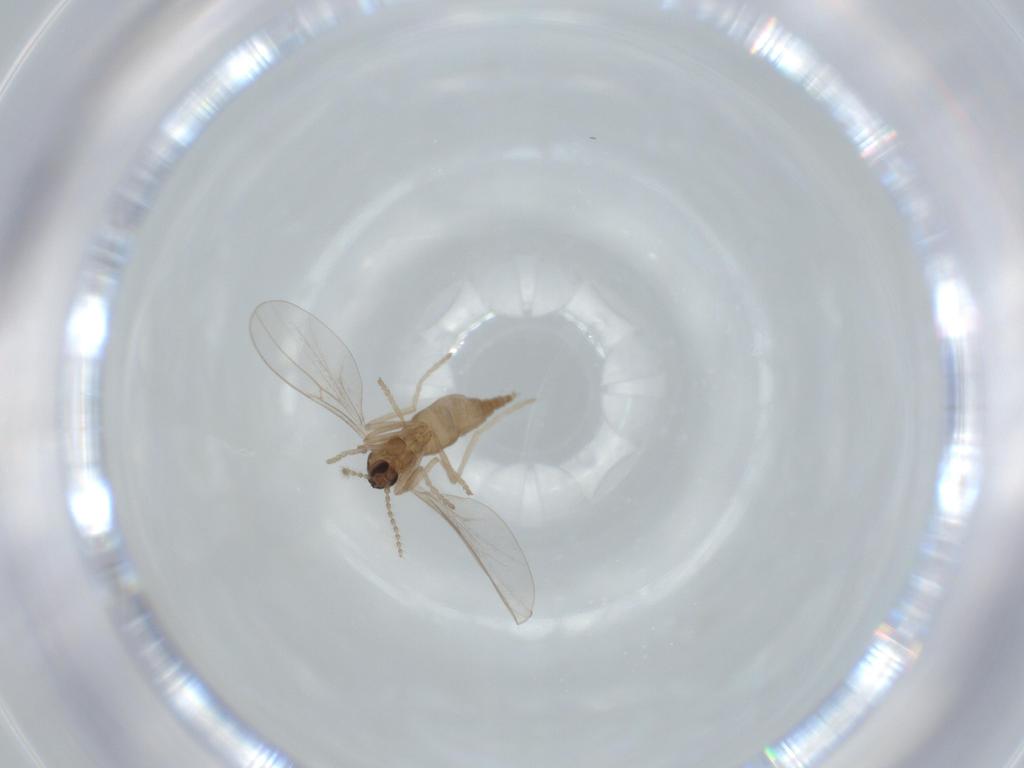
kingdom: Animalia
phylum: Arthropoda
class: Insecta
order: Diptera
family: Cecidomyiidae
